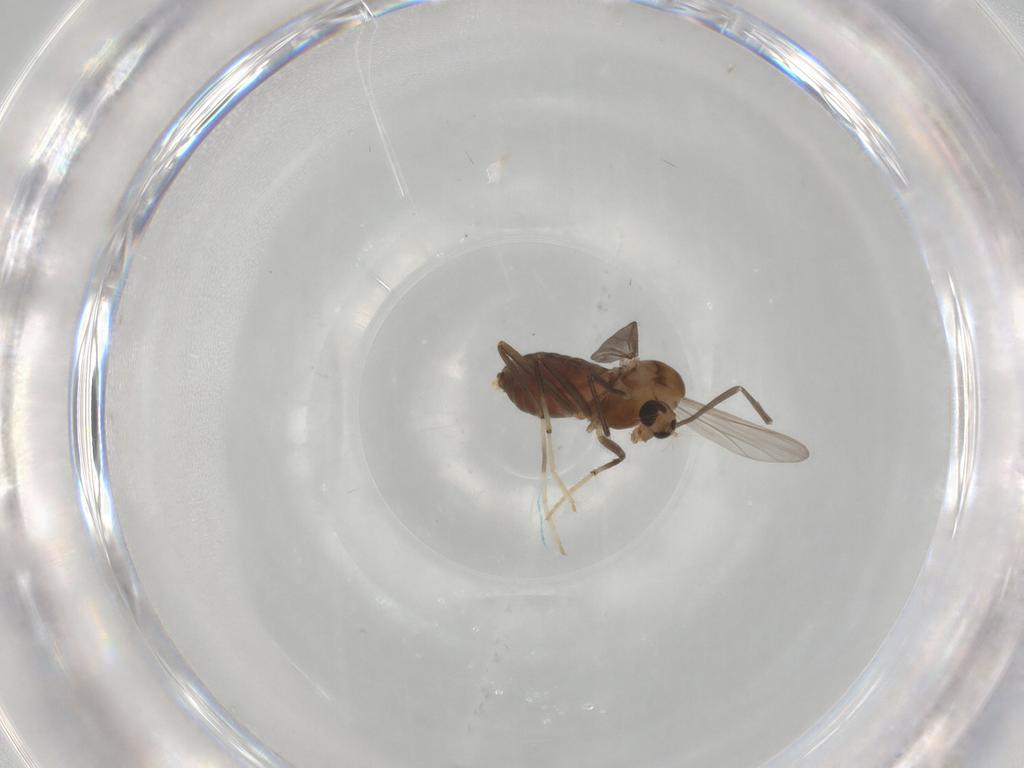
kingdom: Animalia
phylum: Arthropoda
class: Insecta
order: Diptera
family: Chironomidae
